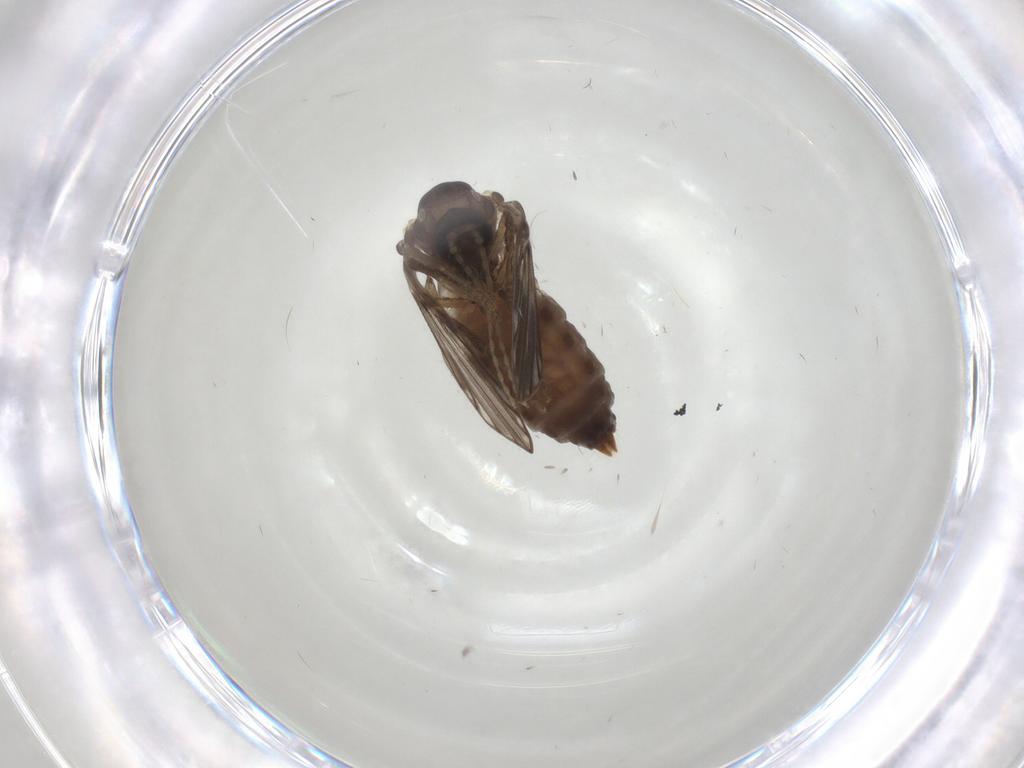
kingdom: Animalia
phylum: Arthropoda
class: Insecta
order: Diptera
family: Psychodidae
